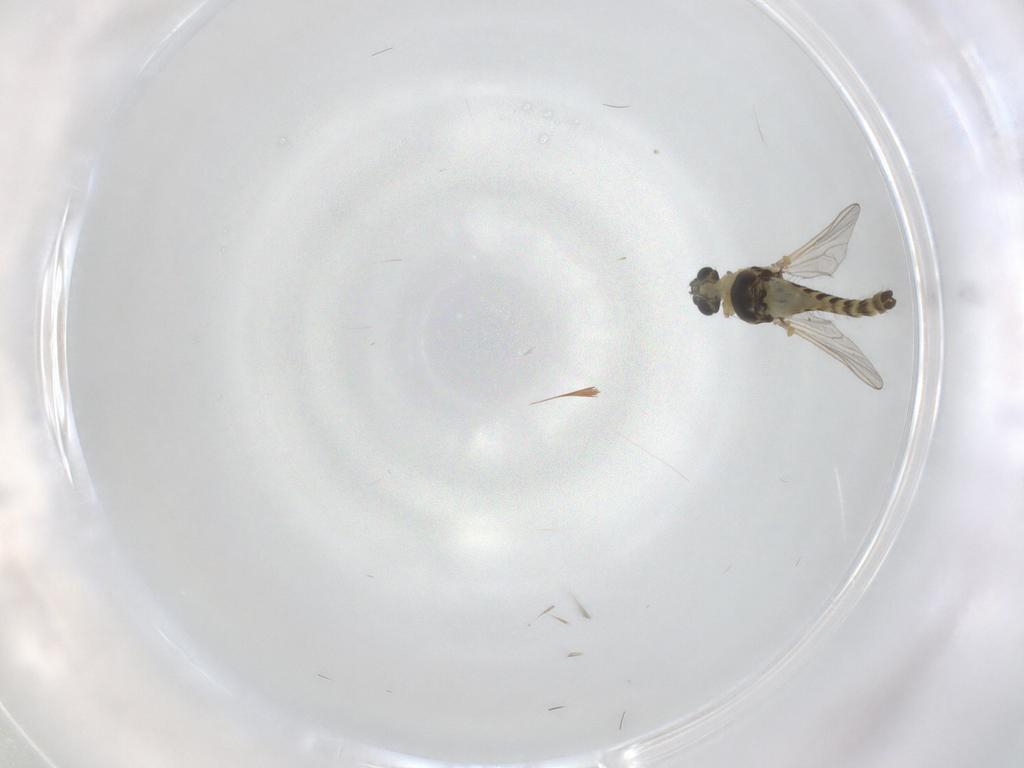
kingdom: Animalia
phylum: Arthropoda
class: Insecta
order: Diptera
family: Chironomidae
